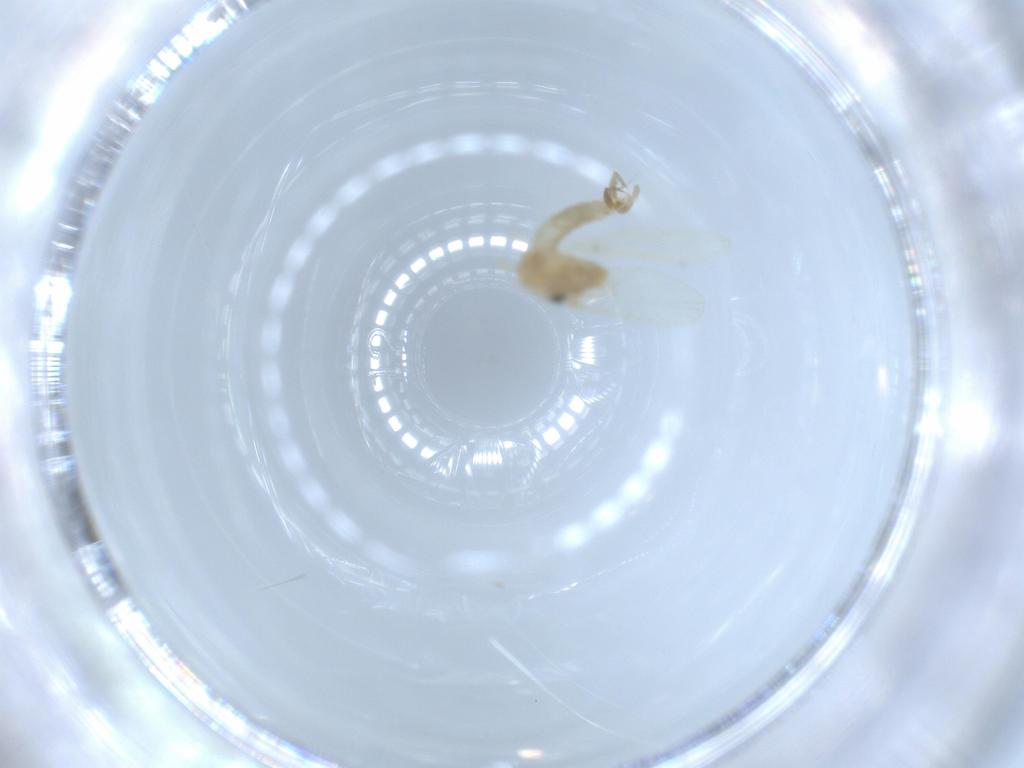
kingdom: Animalia
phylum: Arthropoda
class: Insecta
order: Diptera
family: Psychodidae
